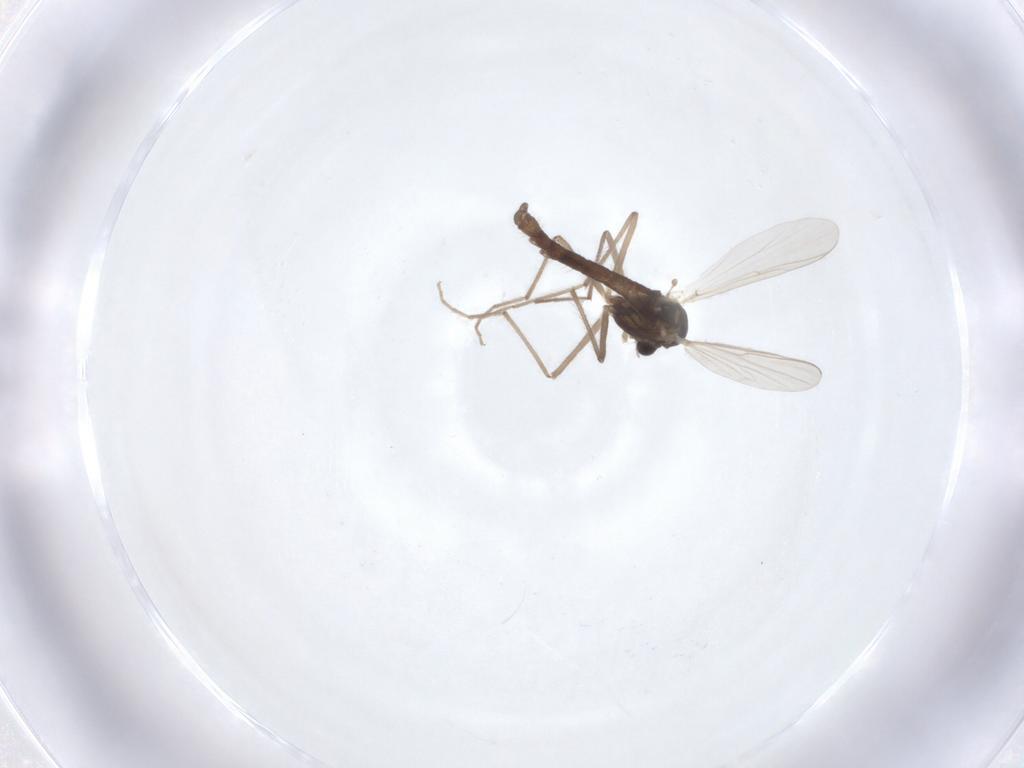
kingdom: Animalia
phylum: Arthropoda
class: Insecta
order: Diptera
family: Chironomidae
